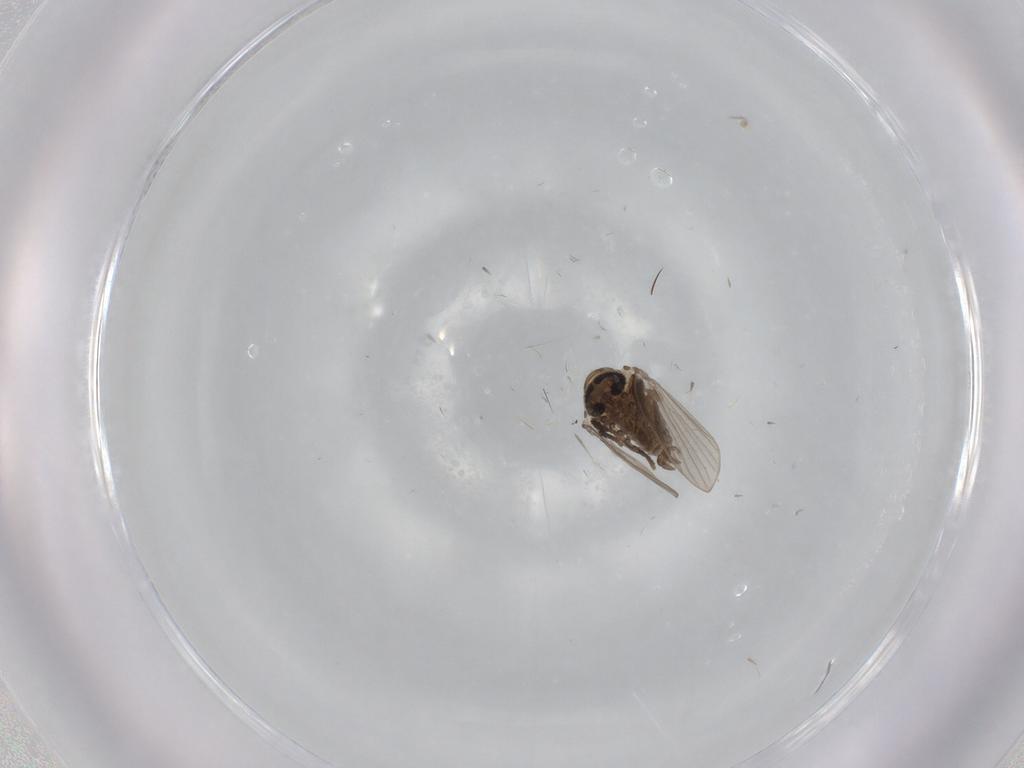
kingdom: Animalia
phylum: Arthropoda
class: Insecta
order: Diptera
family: Psychodidae
